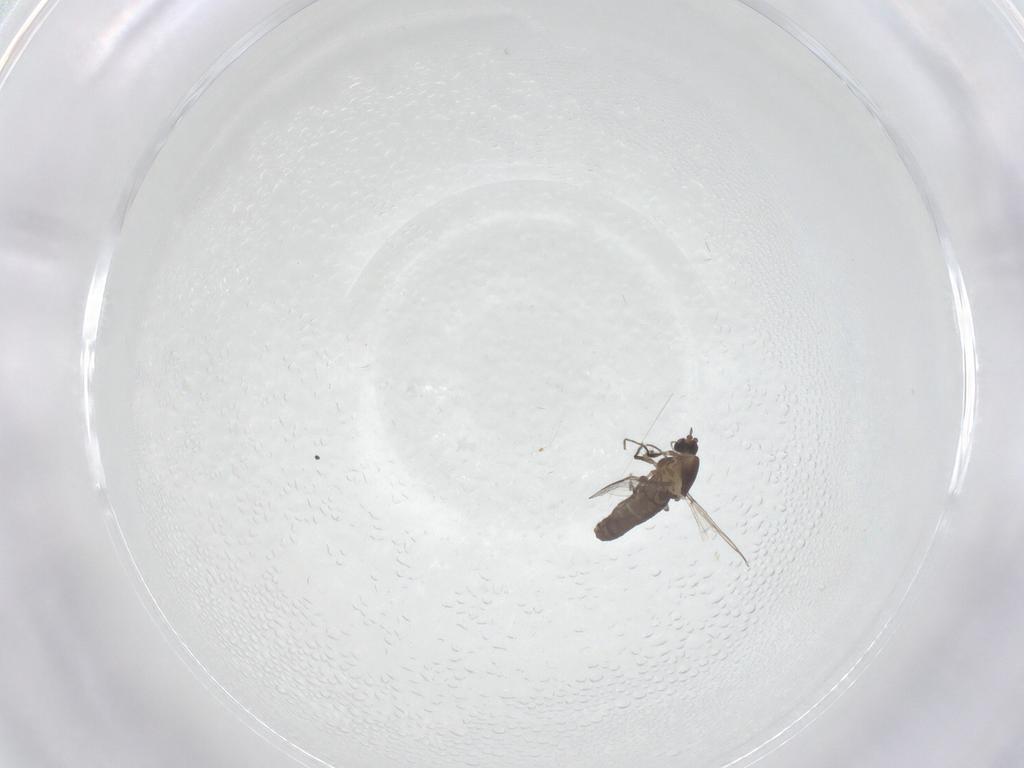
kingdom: Animalia
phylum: Arthropoda
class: Insecta
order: Diptera
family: Chironomidae
